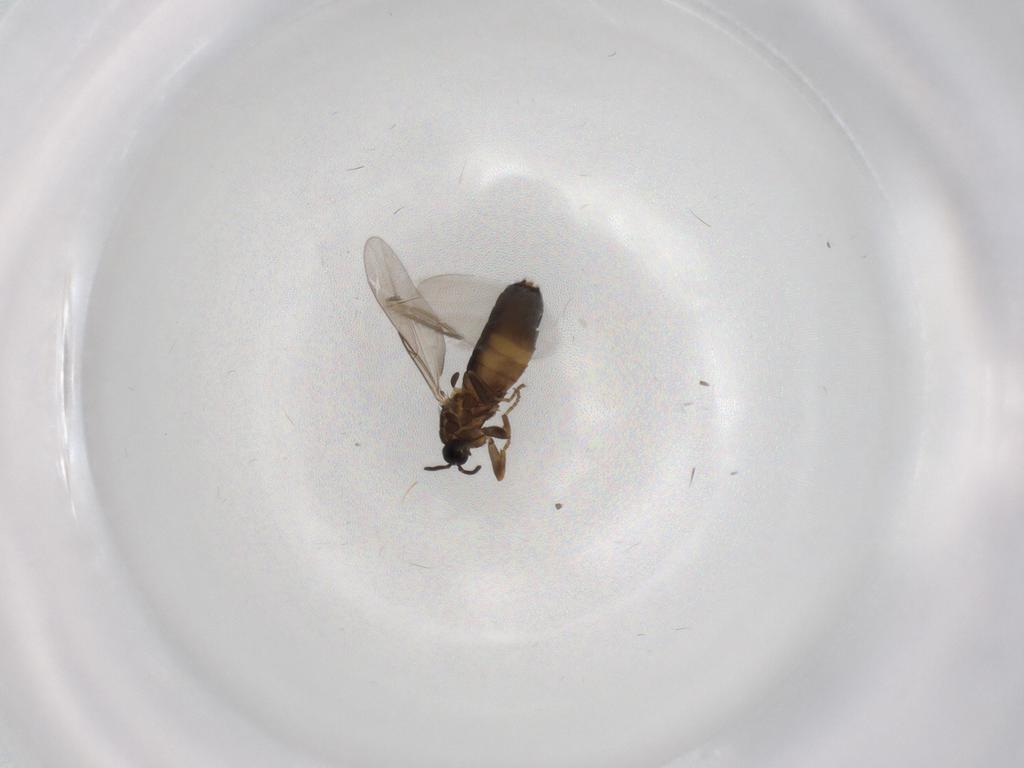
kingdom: Animalia
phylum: Arthropoda
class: Insecta
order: Diptera
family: Scatopsidae
